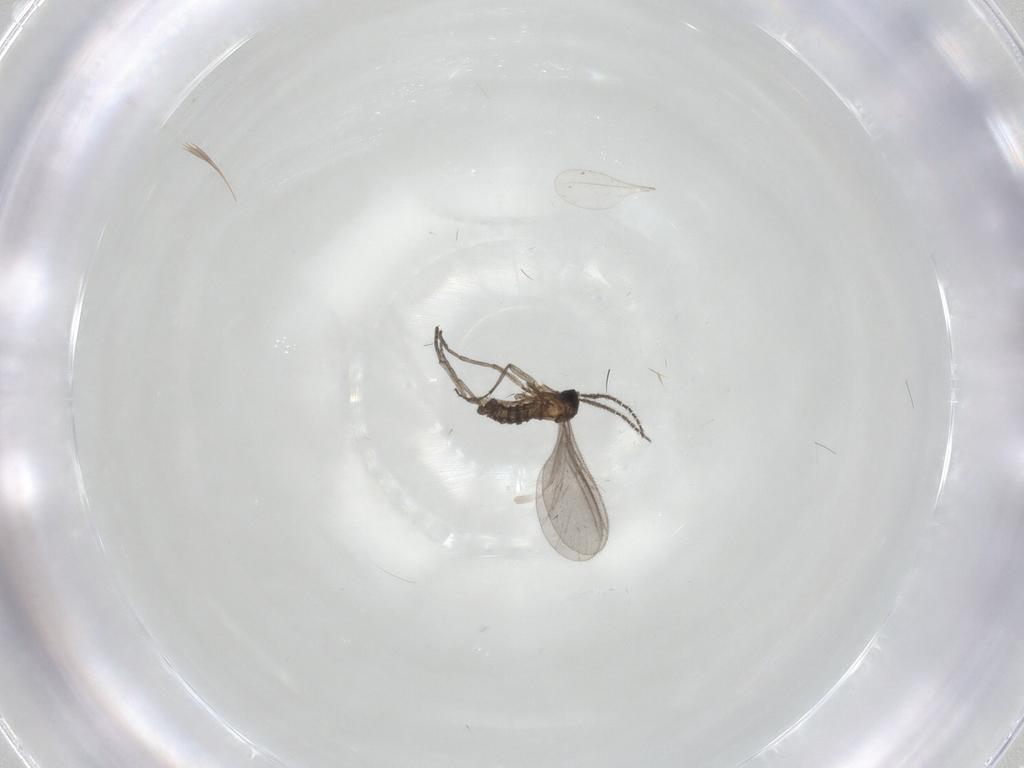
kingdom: Animalia
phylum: Arthropoda
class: Insecta
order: Diptera
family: Sciaridae
